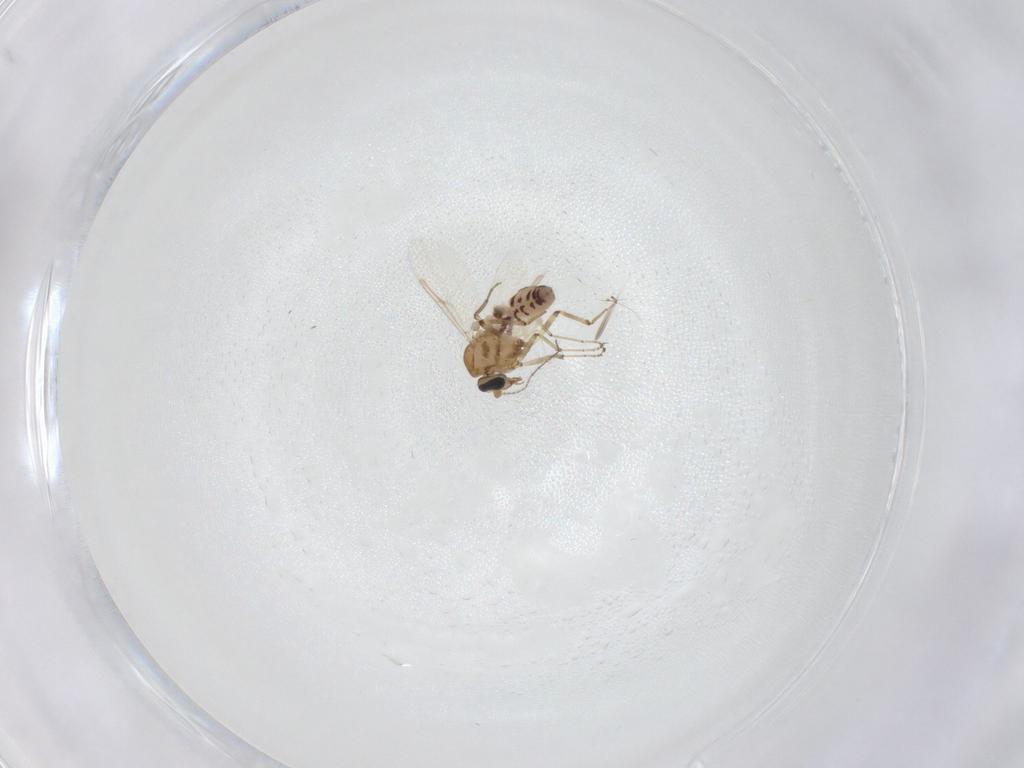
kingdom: Animalia
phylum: Arthropoda
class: Insecta
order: Diptera
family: Ceratopogonidae
